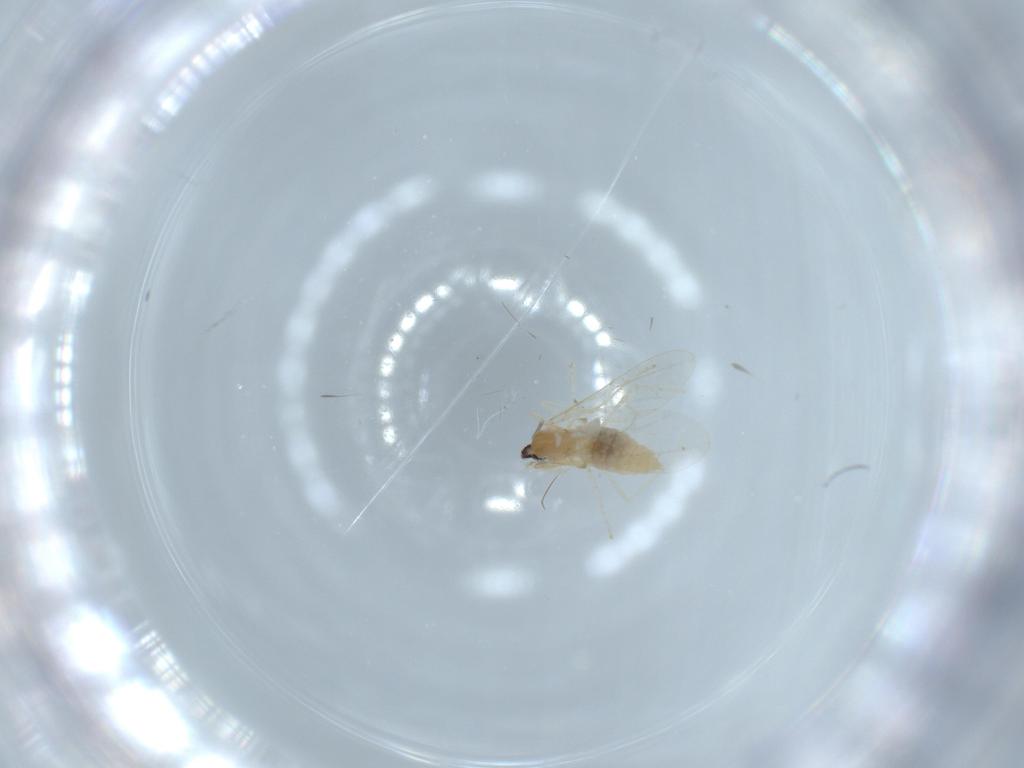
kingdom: Animalia
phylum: Arthropoda
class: Insecta
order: Diptera
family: Cecidomyiidae
